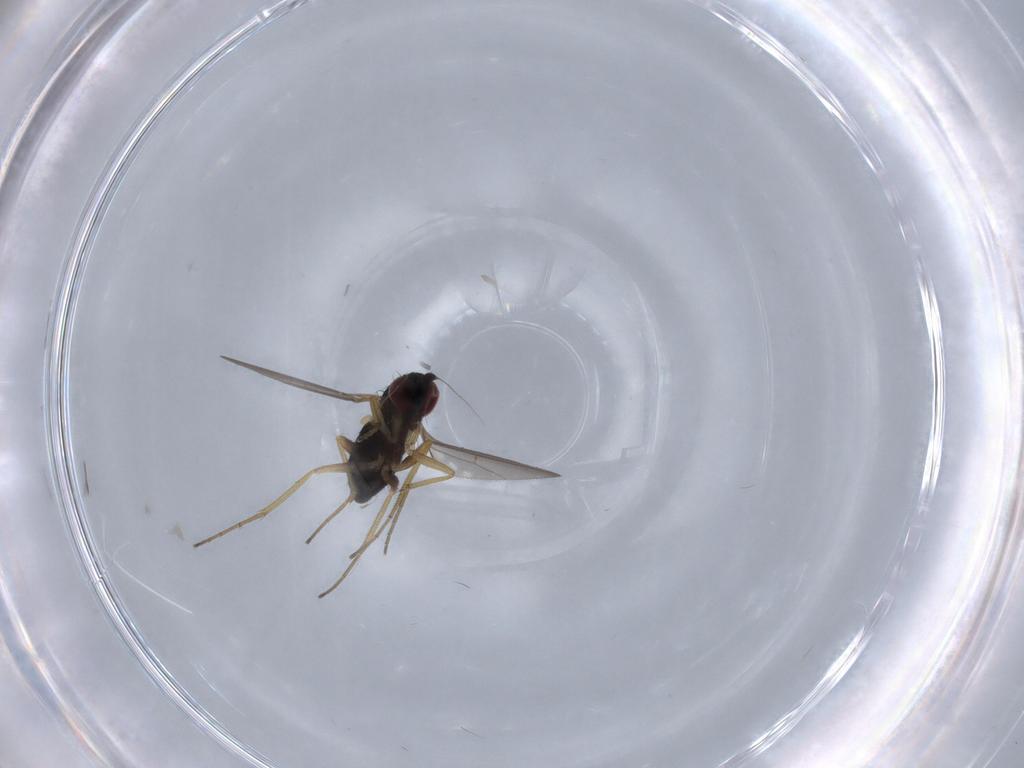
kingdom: Animalia
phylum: Arthropoda
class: Insecta
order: Diptera
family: Dolichopodidae
